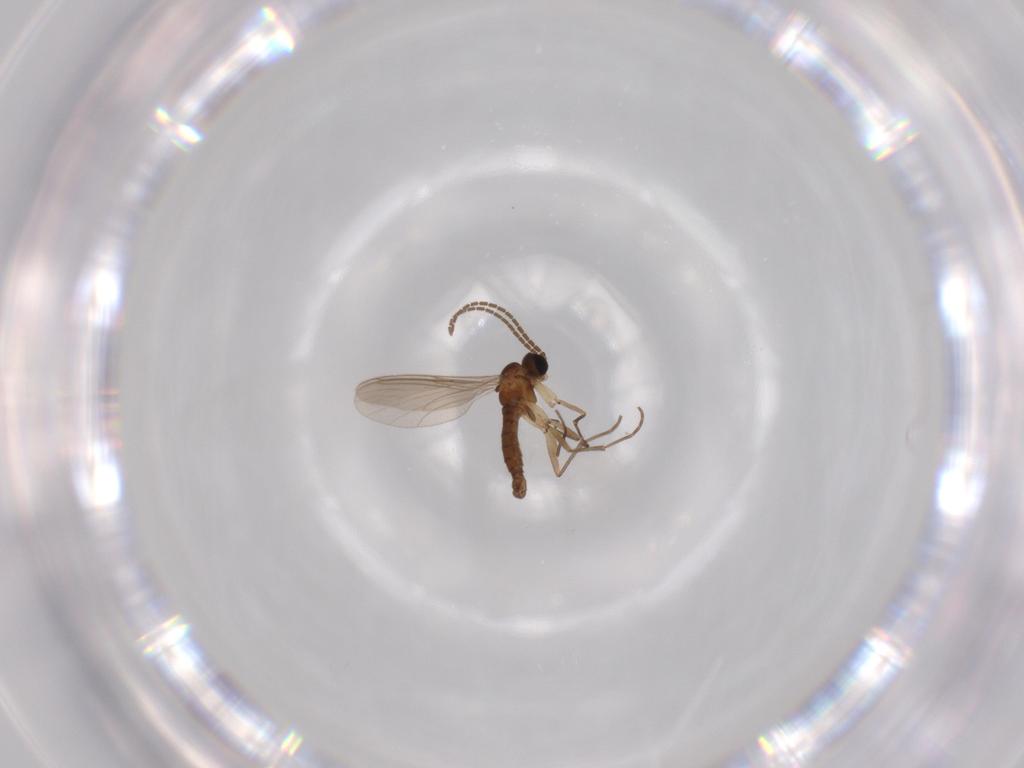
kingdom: Animalia
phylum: Arthropoda
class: Insecta
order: Diptera
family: Sciaridae
